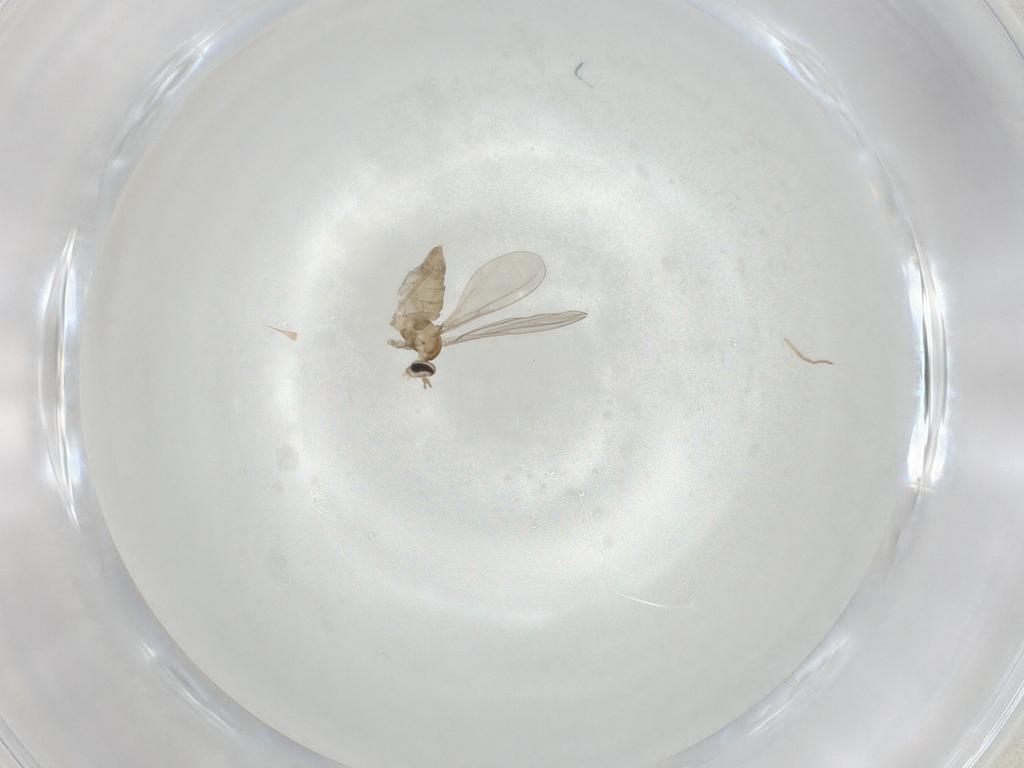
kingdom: Animalia
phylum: Arthropoda
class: Insecta
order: Diptera
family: Cecidomyiidae
